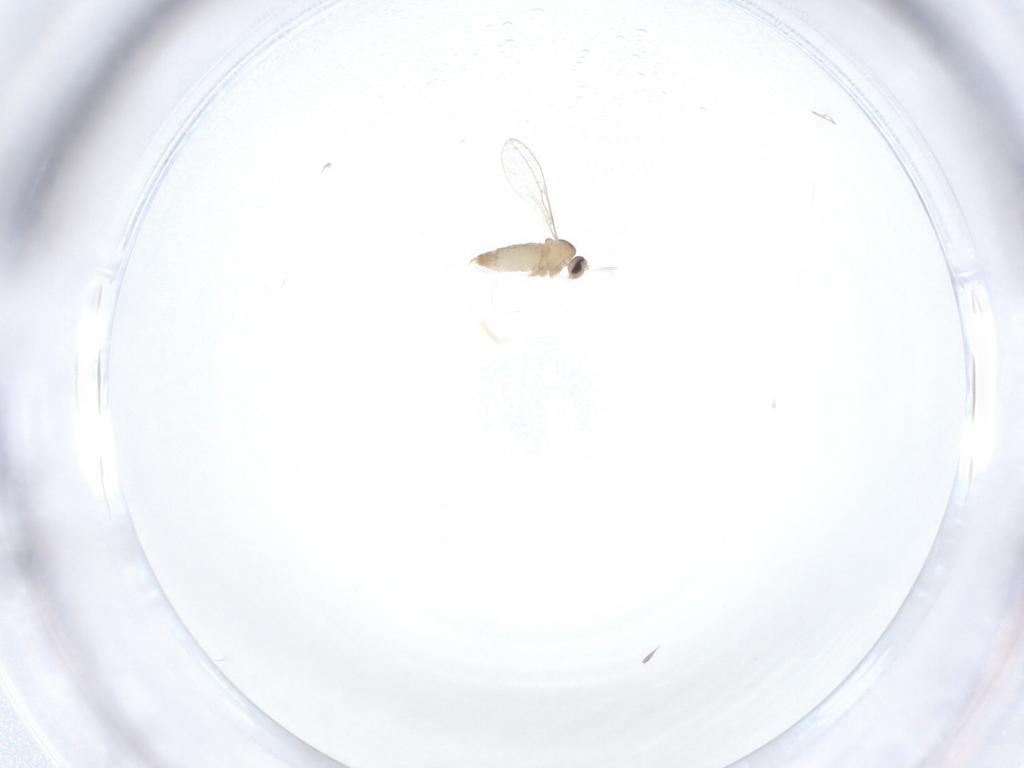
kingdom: Animalia
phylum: Arthropoda
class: Insecta
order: Diptera
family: Cecidomyiidae
